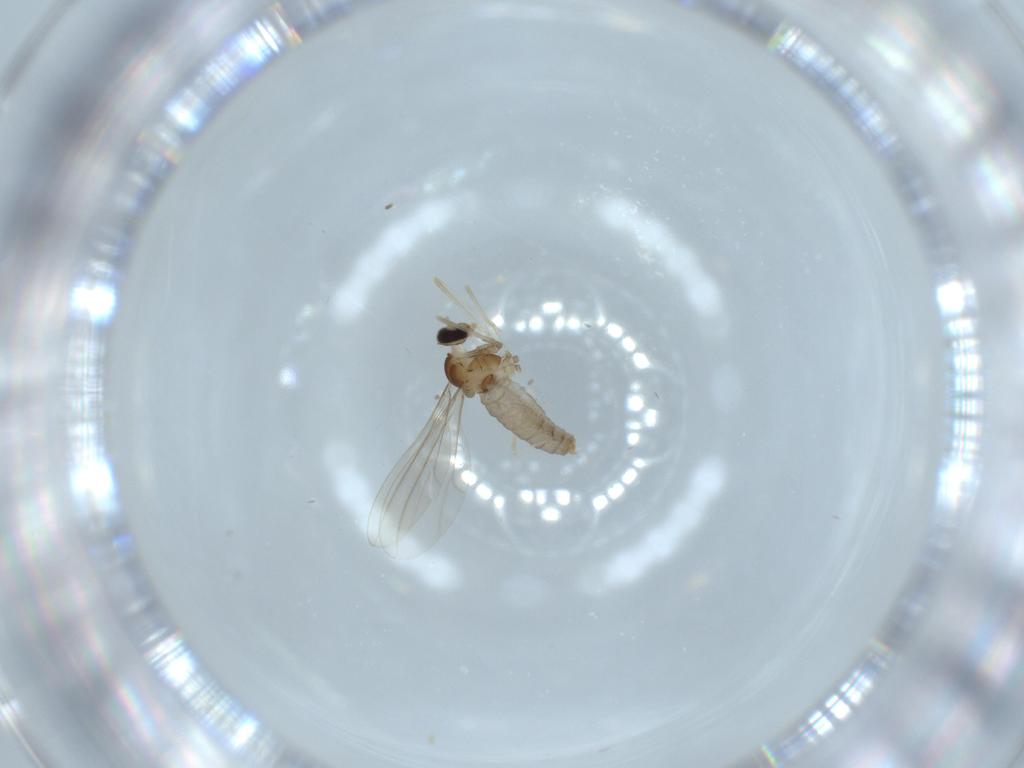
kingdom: Animalia
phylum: Arthropoda
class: Insecta
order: Diptera
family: Cecidomyiidae
